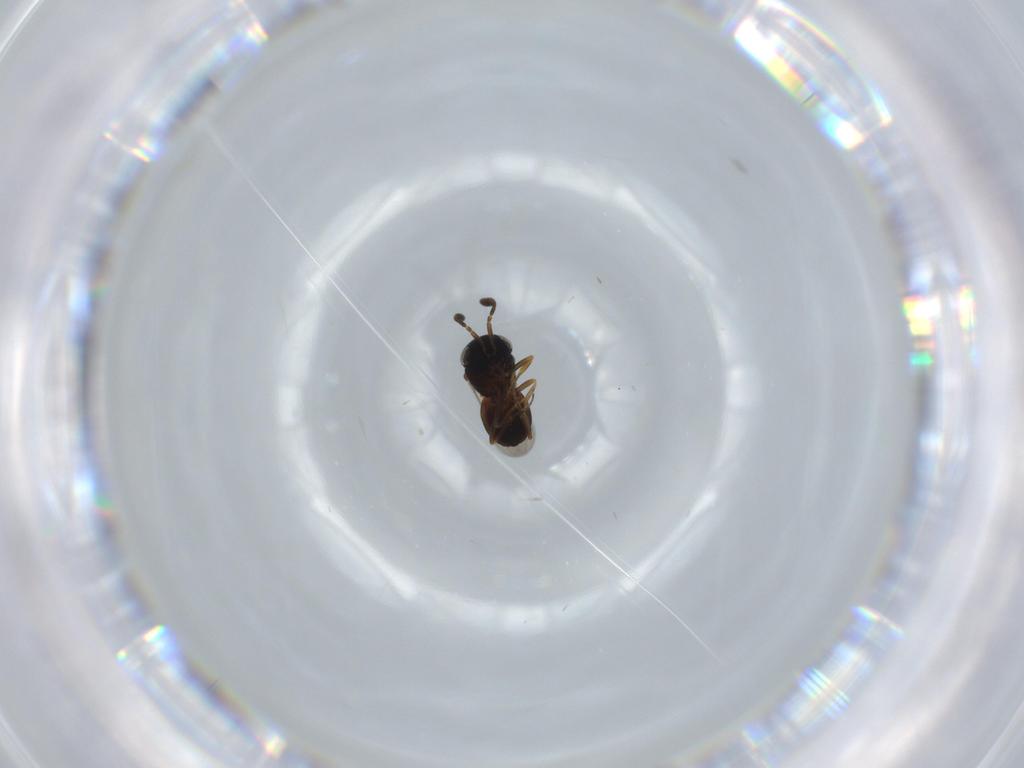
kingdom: Animalia
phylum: Arthropoda
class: Insecta
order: Hymenoptera
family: Scelionidae
